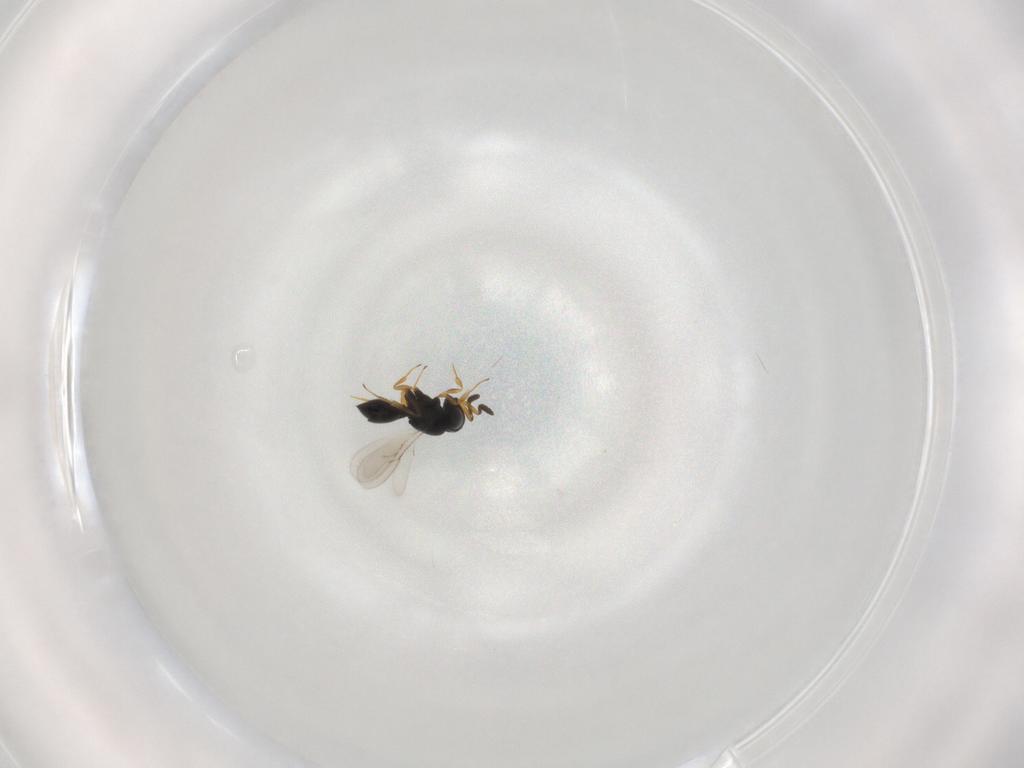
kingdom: Animalia
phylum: Arthropoda
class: Insecta
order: Hymenoptera
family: Scelionidae
